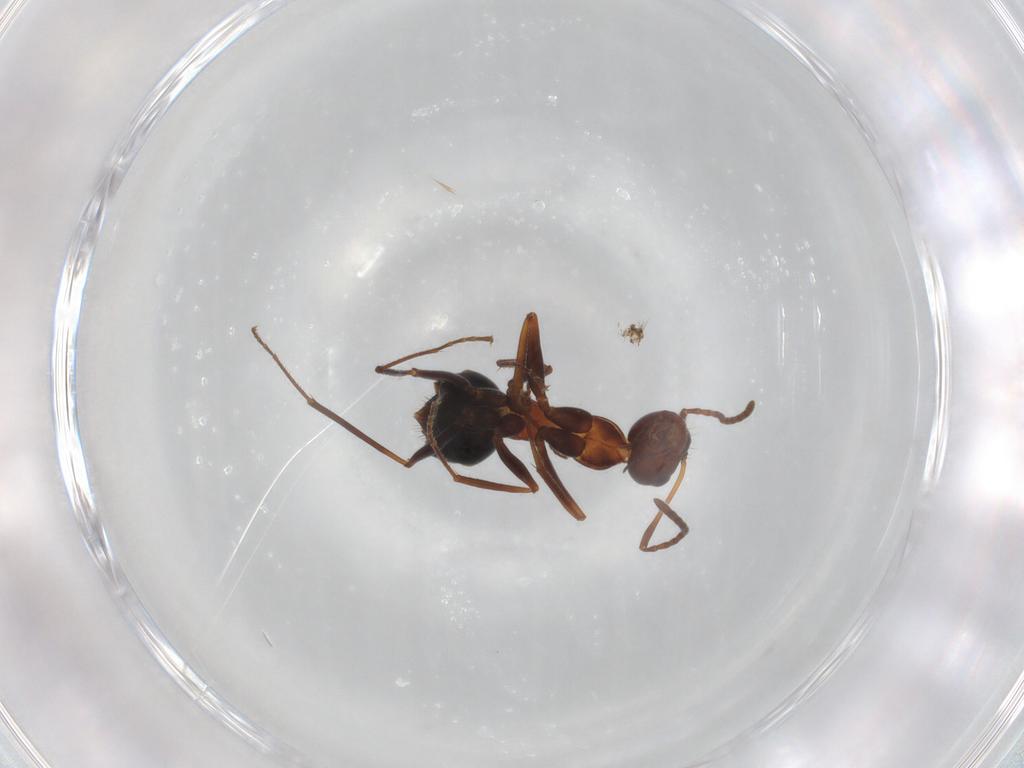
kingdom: Animalia
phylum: Arthropoda
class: Insecta
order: Hymenoptera
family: Formicidae
